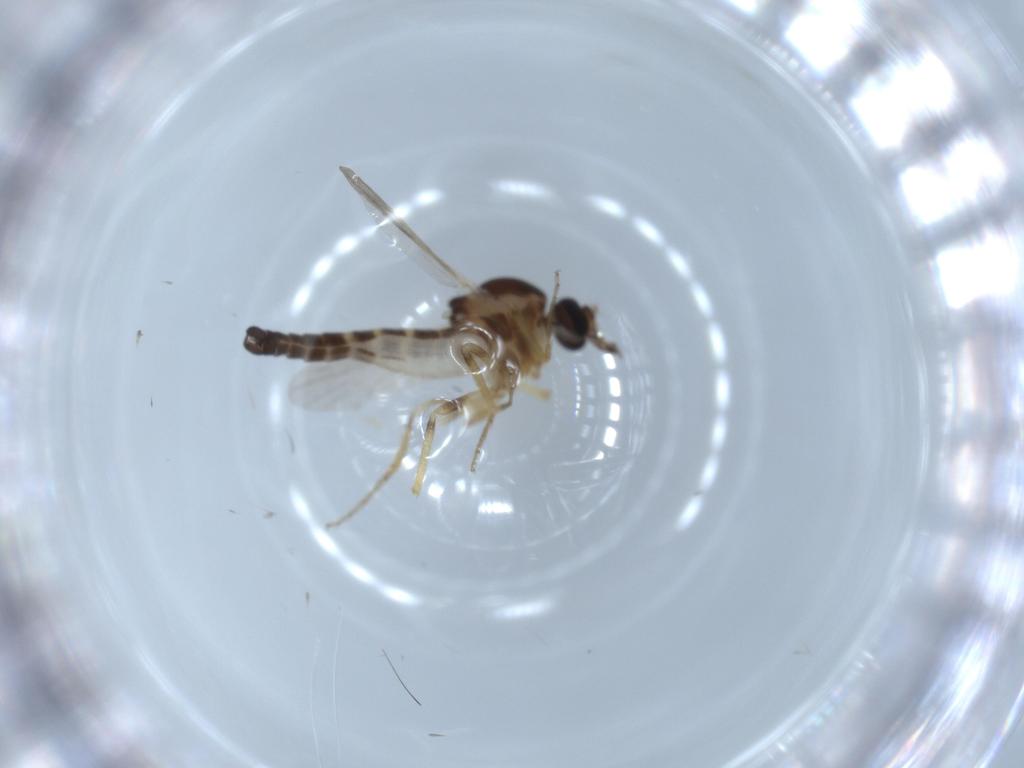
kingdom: Animalia
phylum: Arthropoda
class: Insecta
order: Diptera
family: Ceratopogonidae
